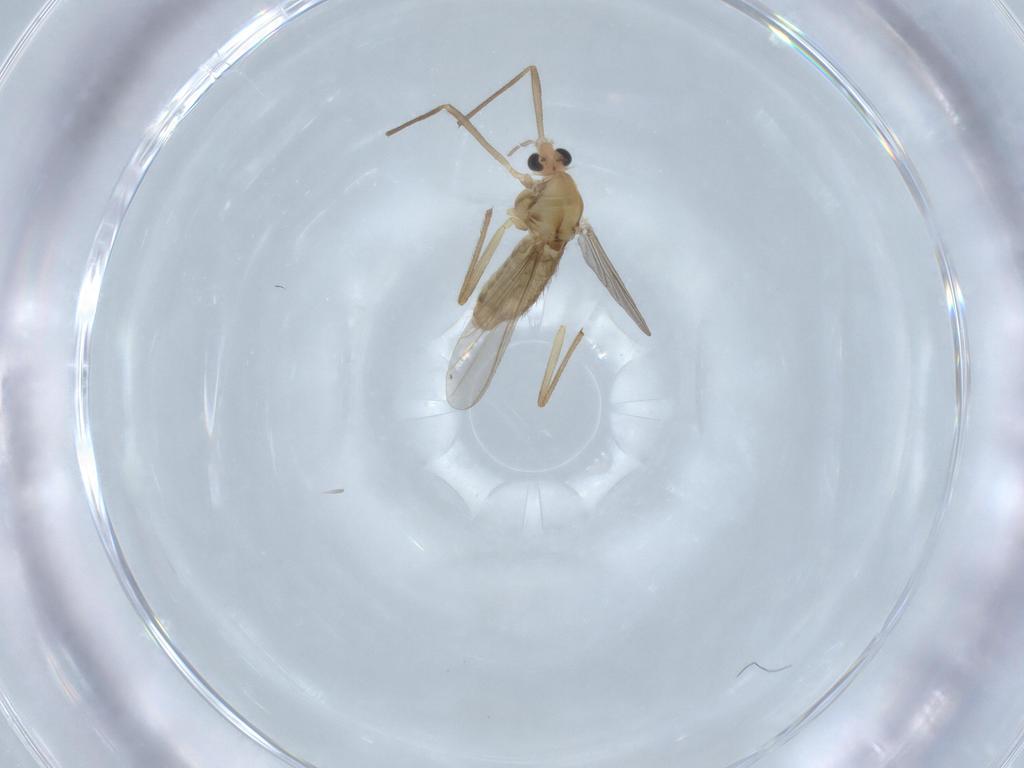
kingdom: Animalia
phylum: Arthropoda
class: Insecta
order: Diptera
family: Chironomidae
